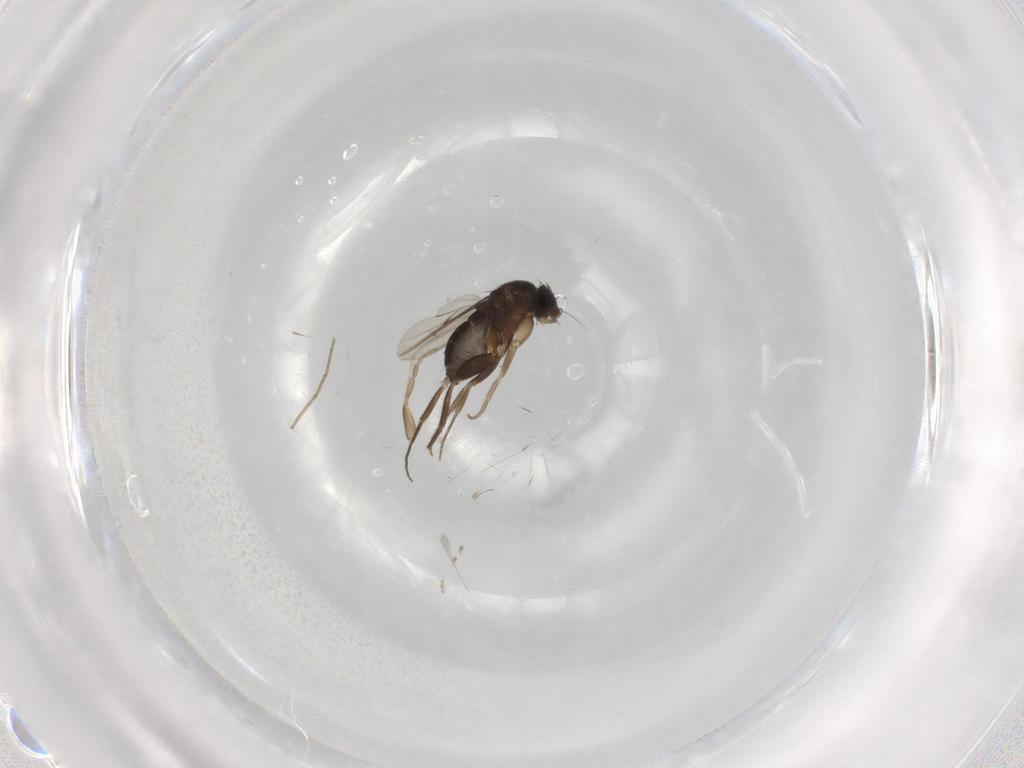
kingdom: Animalia
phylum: Arthropoda
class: Insecta
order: Diptera
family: Phoridae
